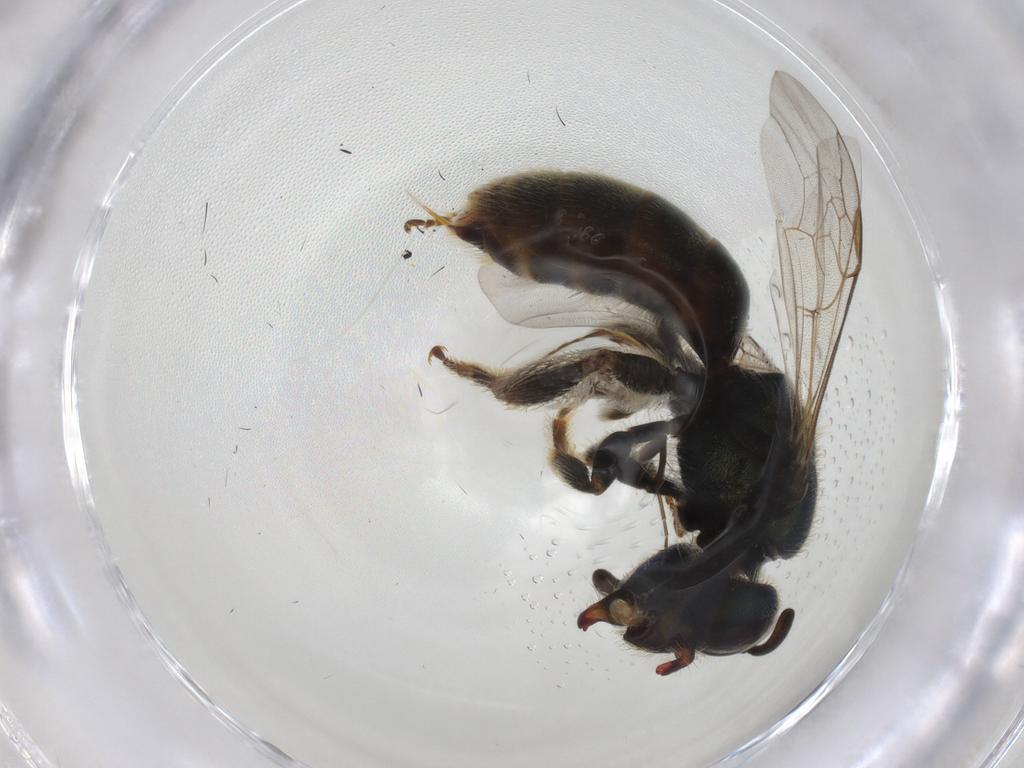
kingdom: Animalia
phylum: Arthropoda
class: Insecta
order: Hymenoptera
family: Halictidae
